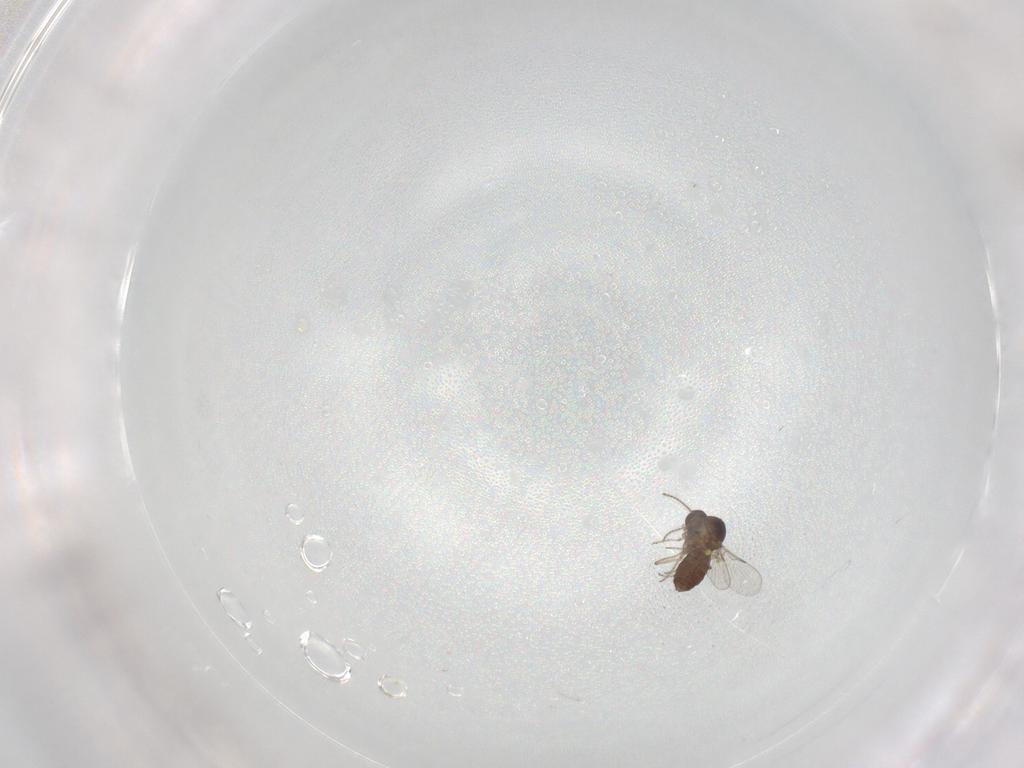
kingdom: Animalia
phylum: Arthropoda
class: Insecta
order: Diptera
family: Ceratopogonidae
